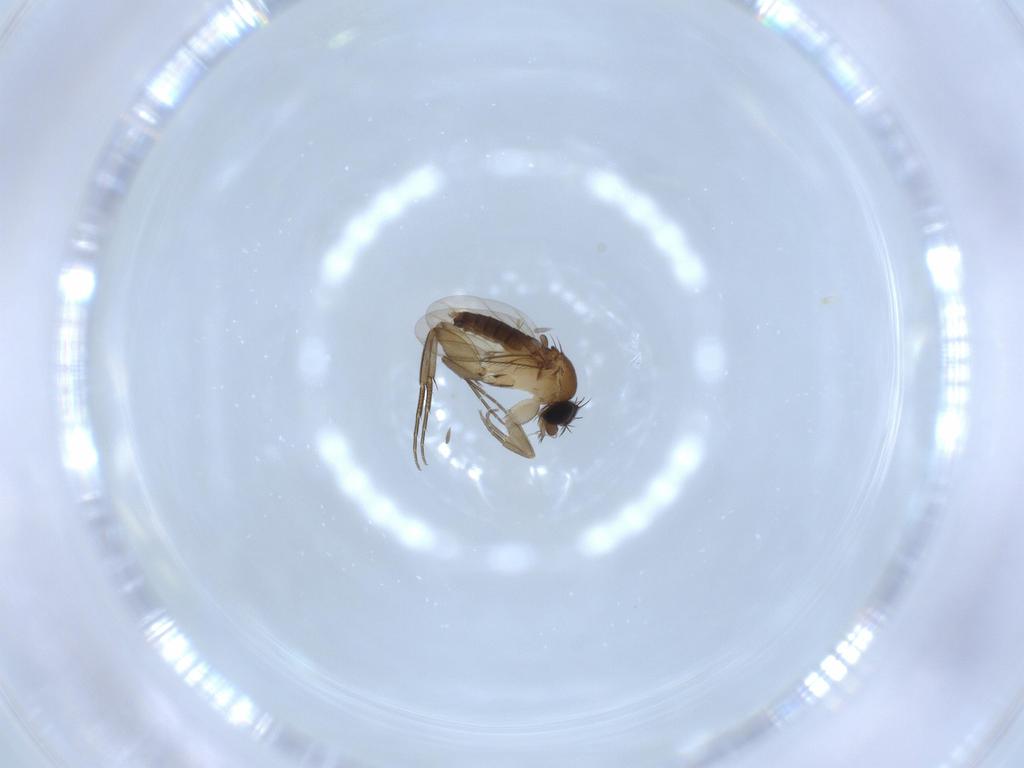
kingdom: Animalia
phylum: Arthropoda
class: Insecta
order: Diptera
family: Phoridae
